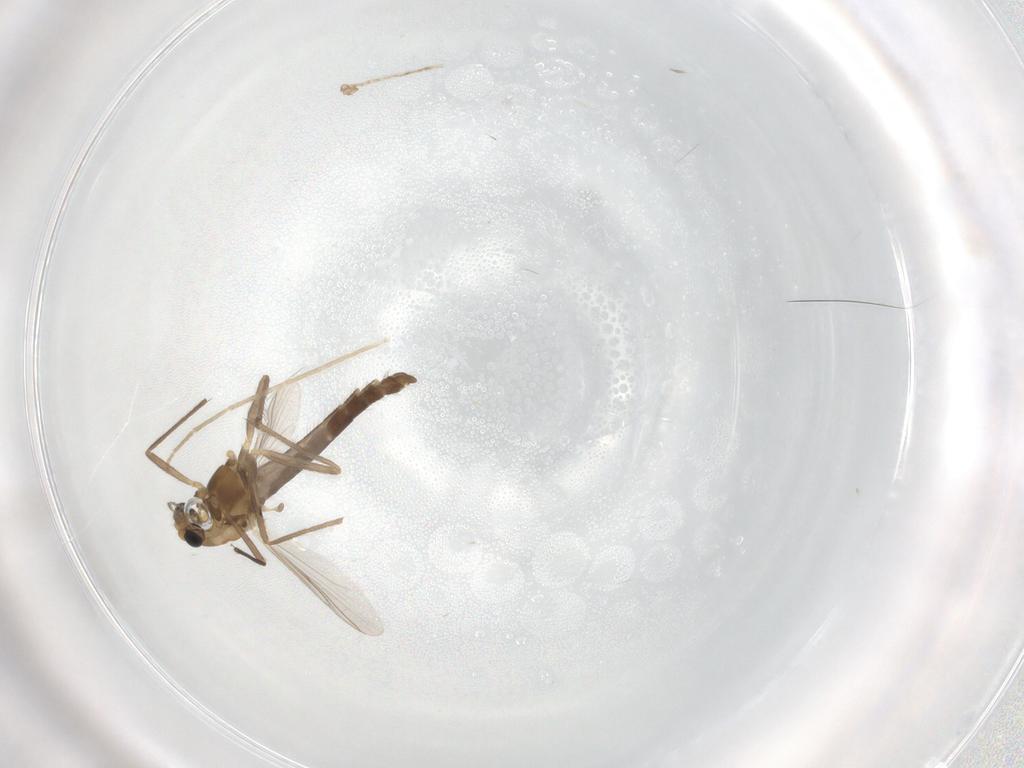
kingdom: Animalia
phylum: Arthropoda
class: Insecta
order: Diptera
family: Chironomidae
